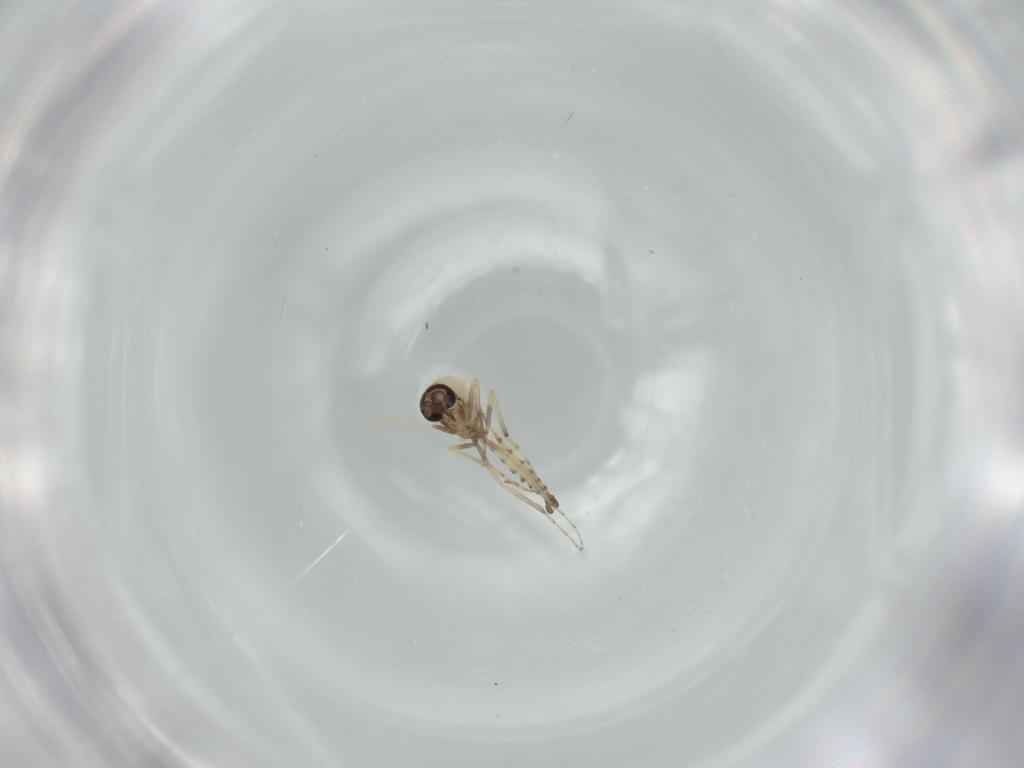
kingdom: Animalia
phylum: Arthropoda
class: Insecta
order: Diptera
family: Ceratopogonidae
